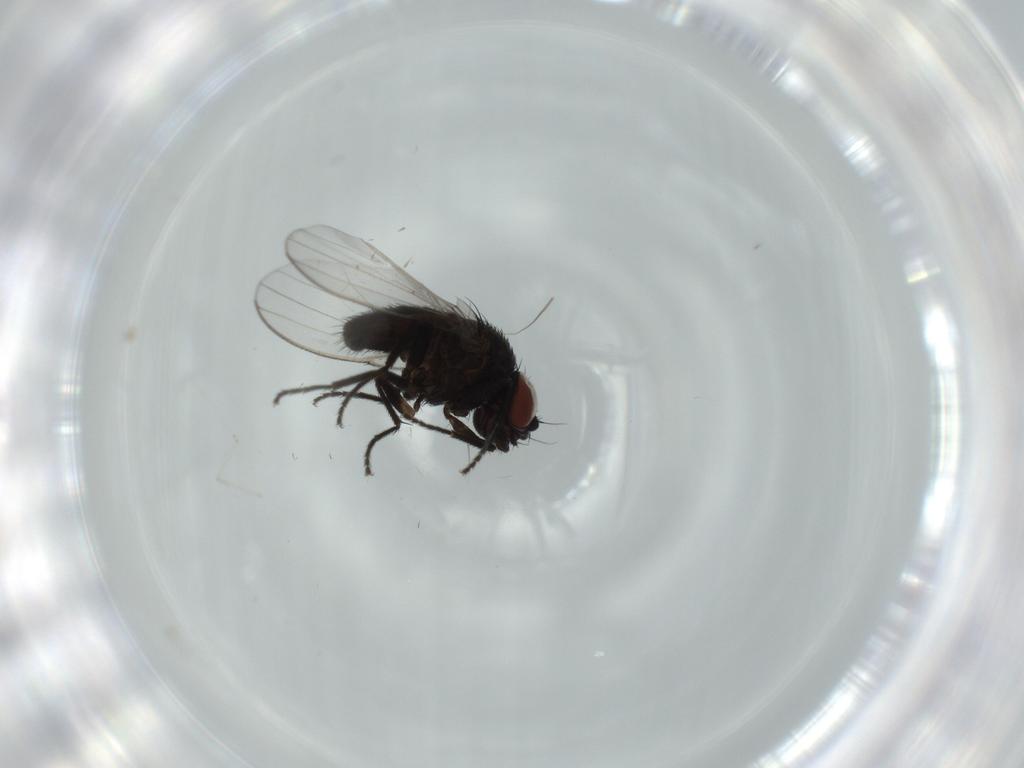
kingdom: Animalia
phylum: Arthropoda
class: Insecta
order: Diptera
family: Milichiidae
